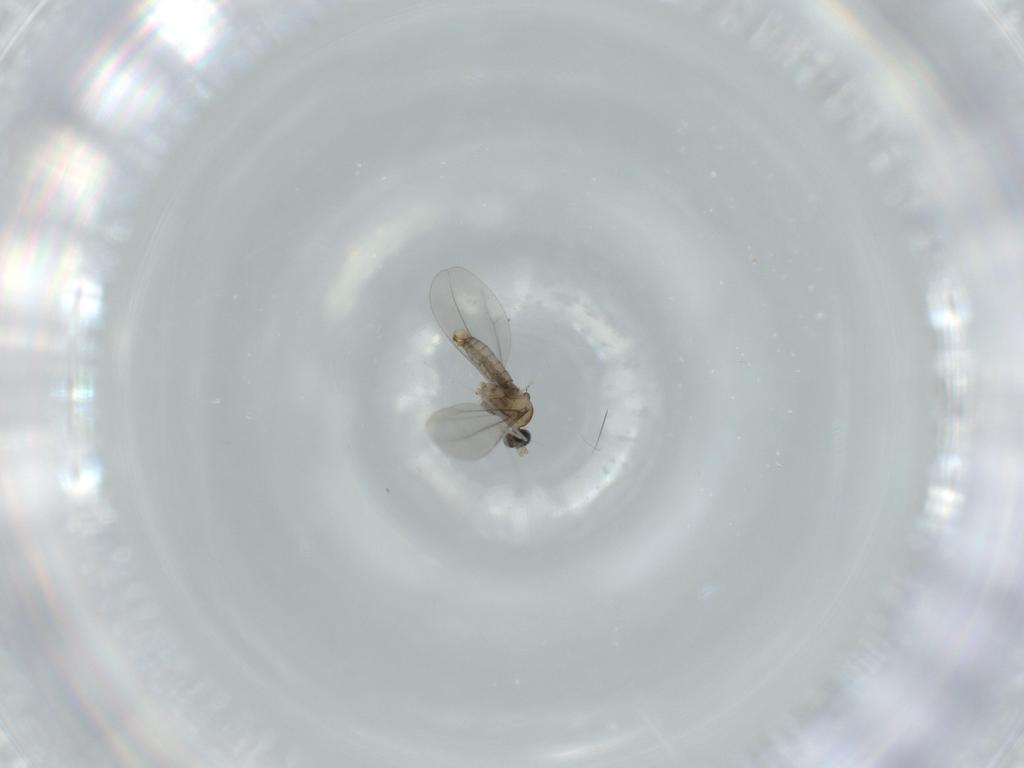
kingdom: Animalia
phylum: Arthropoda
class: Insecta
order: Diptera
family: Cecidomyiidae
